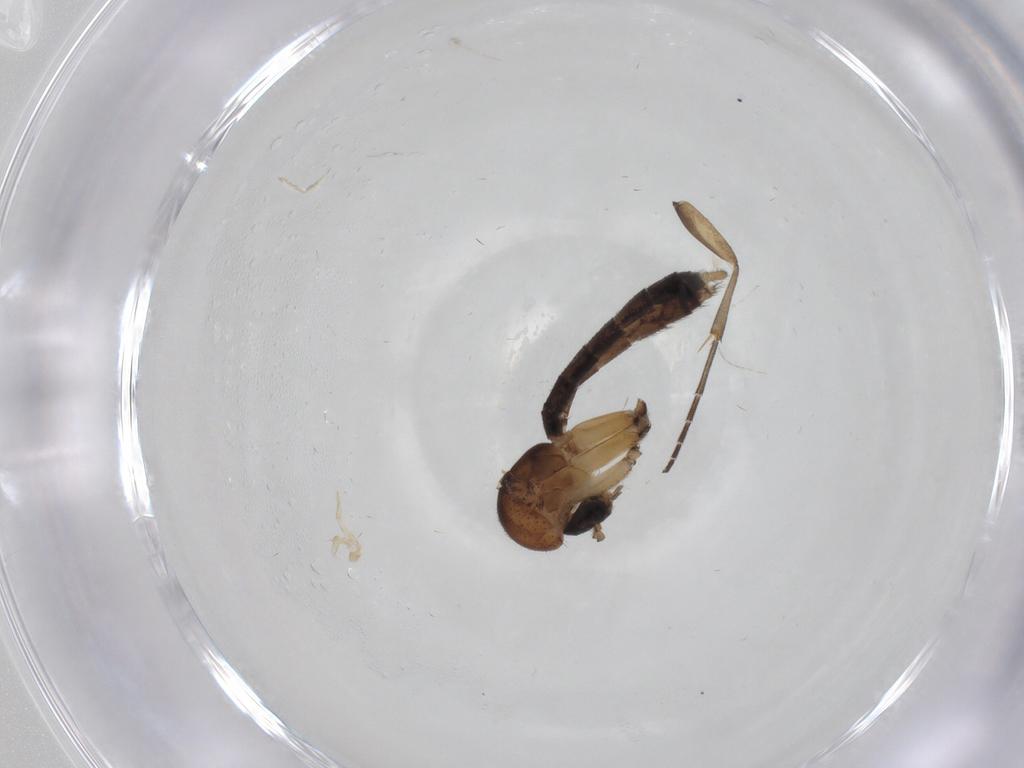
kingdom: Animalia
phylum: Arthropoda
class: Insecta
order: Diptera
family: Mycetophilidae
